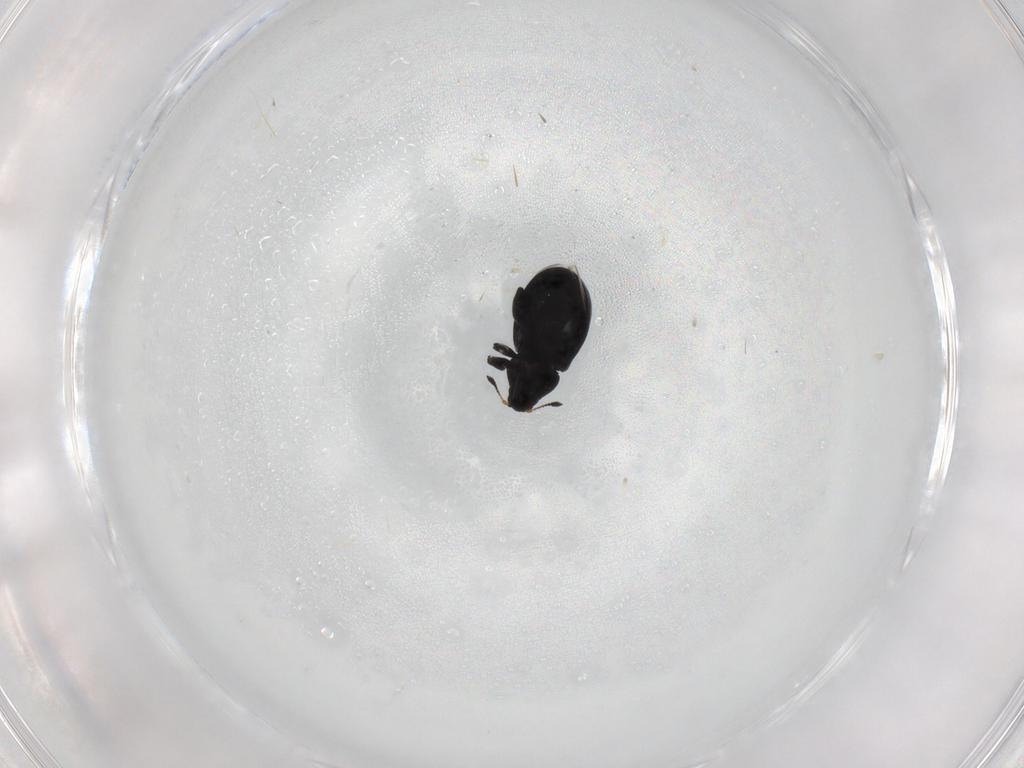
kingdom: Animalia
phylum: Arthropoda
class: Insecta
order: Coleoptera
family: Curculionidae
